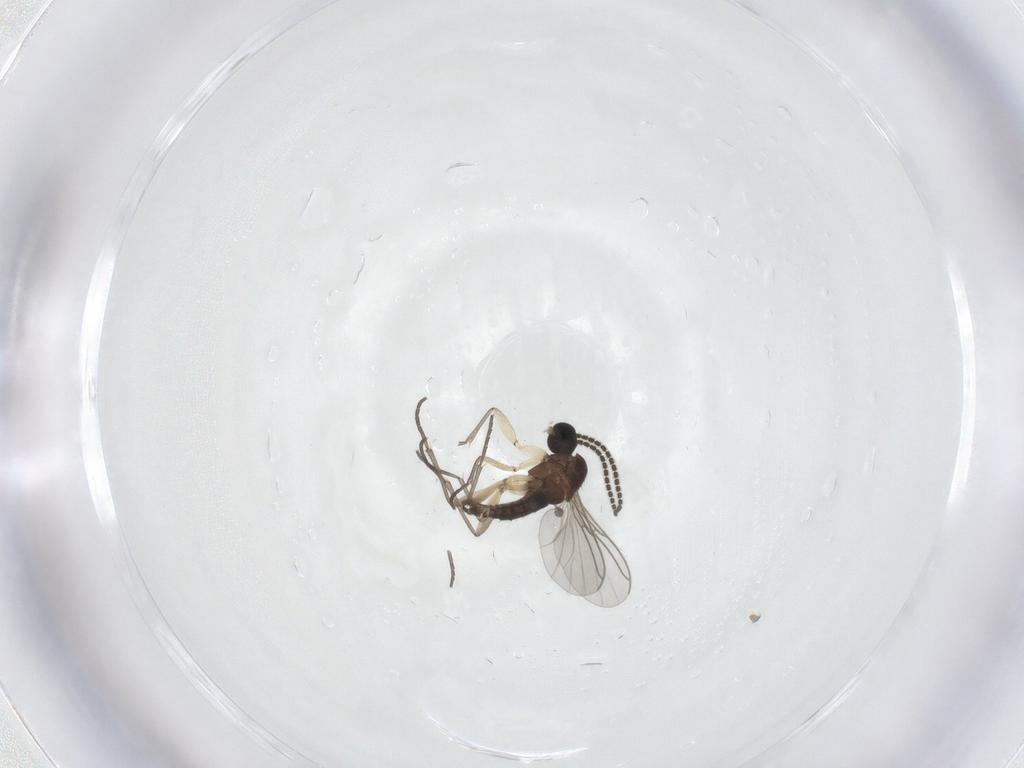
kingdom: Animalia
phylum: Arthropoda
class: Insecta
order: Diptera
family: Sciaridae
